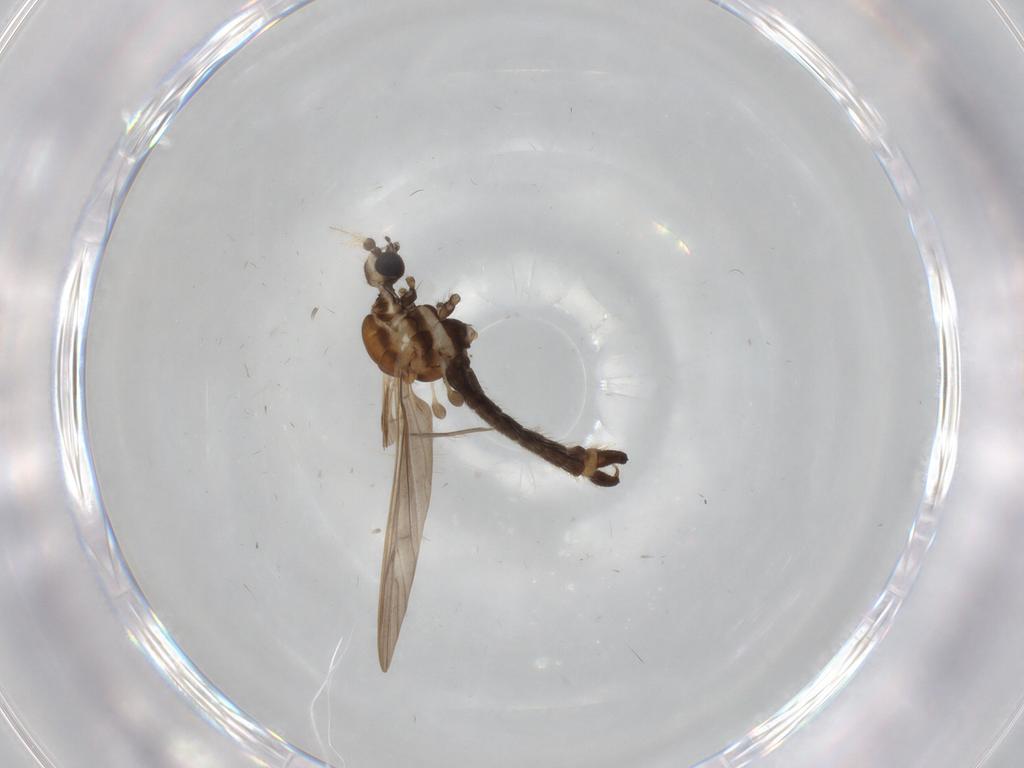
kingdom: Animalia
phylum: Arthropoda
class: Insecta
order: Diptera
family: Chironomidae
